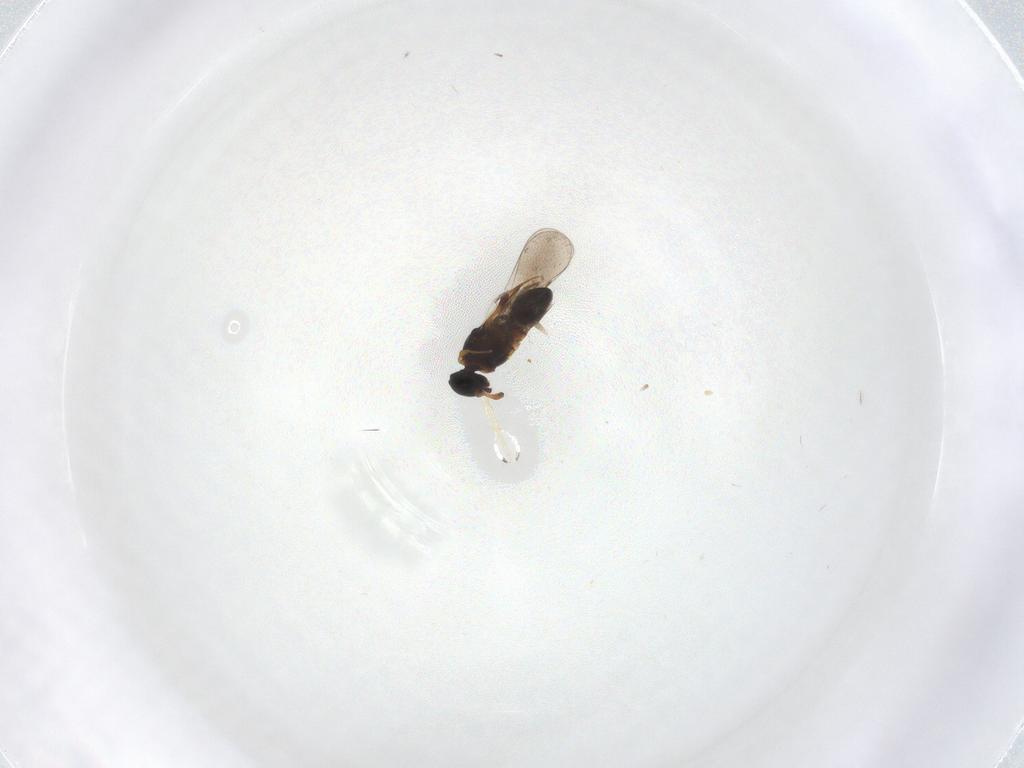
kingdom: Animalia
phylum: Arthropoda
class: Insecta
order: Hymenoptera
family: Platygastridae
